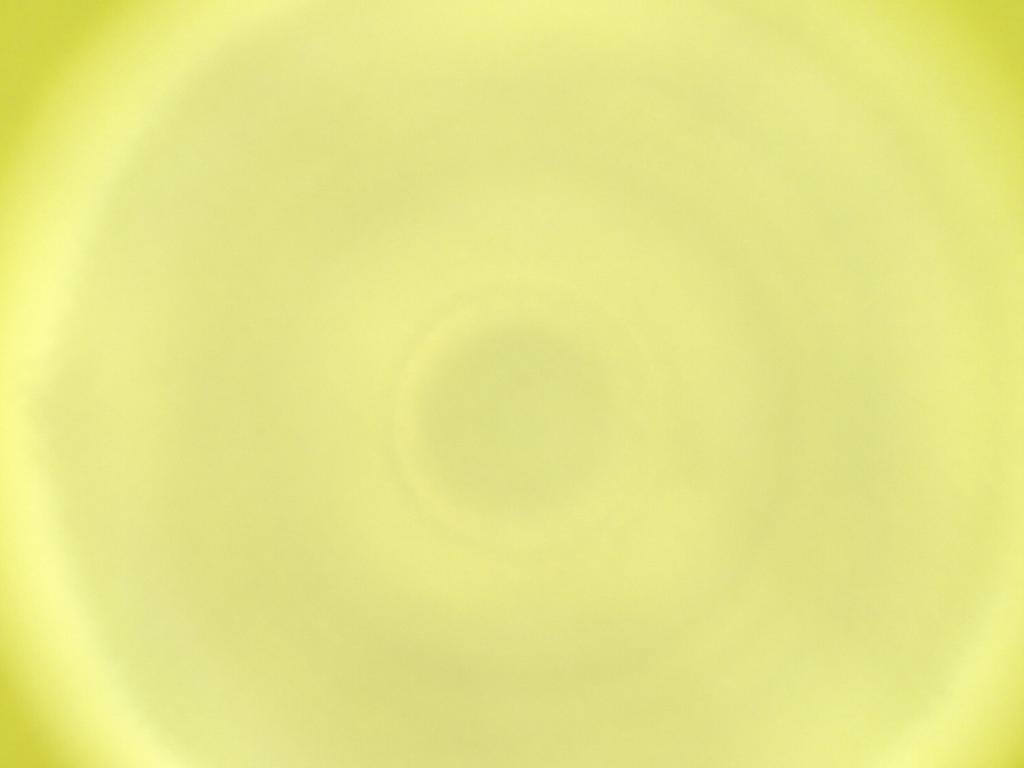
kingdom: Animalia
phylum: Arthropoda
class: Insecta
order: Diptera
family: Cecidomyiidae
